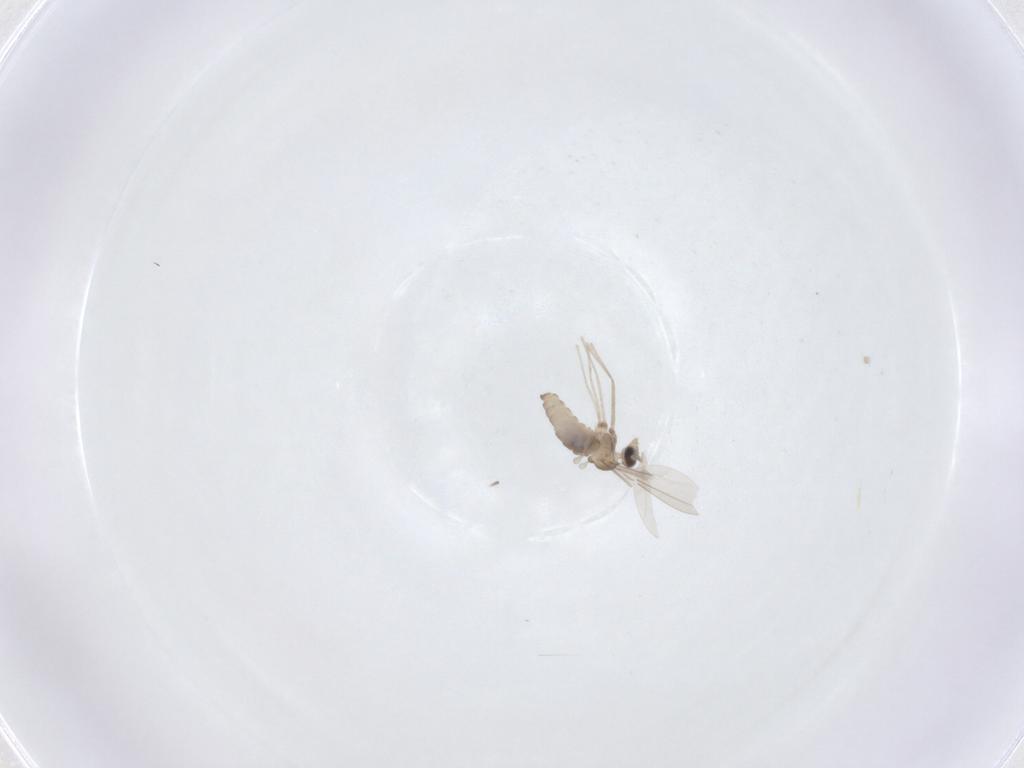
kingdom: Animalia
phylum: Arthropoda
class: Insecta
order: Diptera
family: Cecidomyiidae
